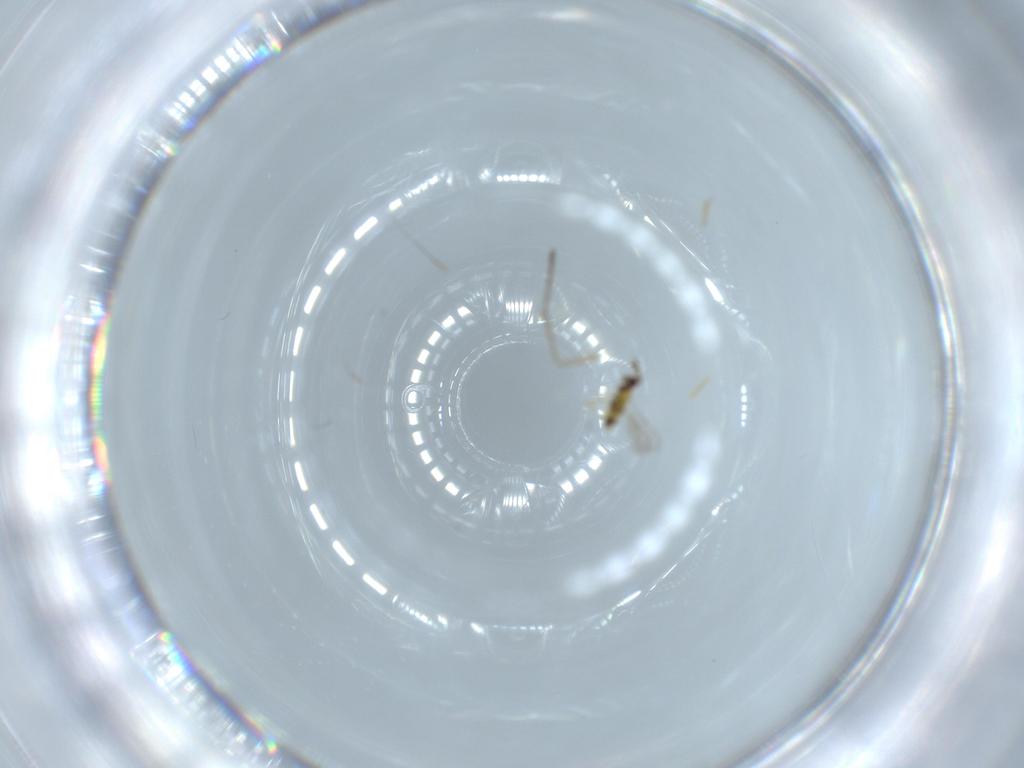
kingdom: Animalia
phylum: Arthropoda
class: Insecta
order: Hymenoptera
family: Aphelinidae
